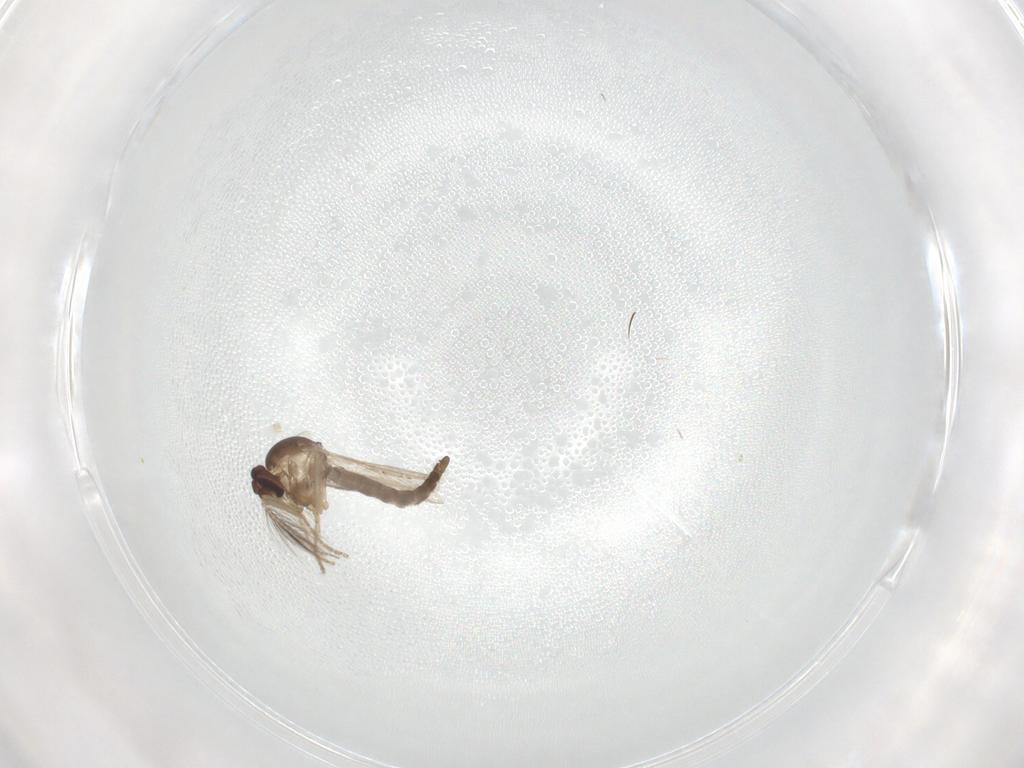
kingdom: Animalia
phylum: Arthropoda
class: Insecta
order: Diptera
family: Ceratopogonidae
